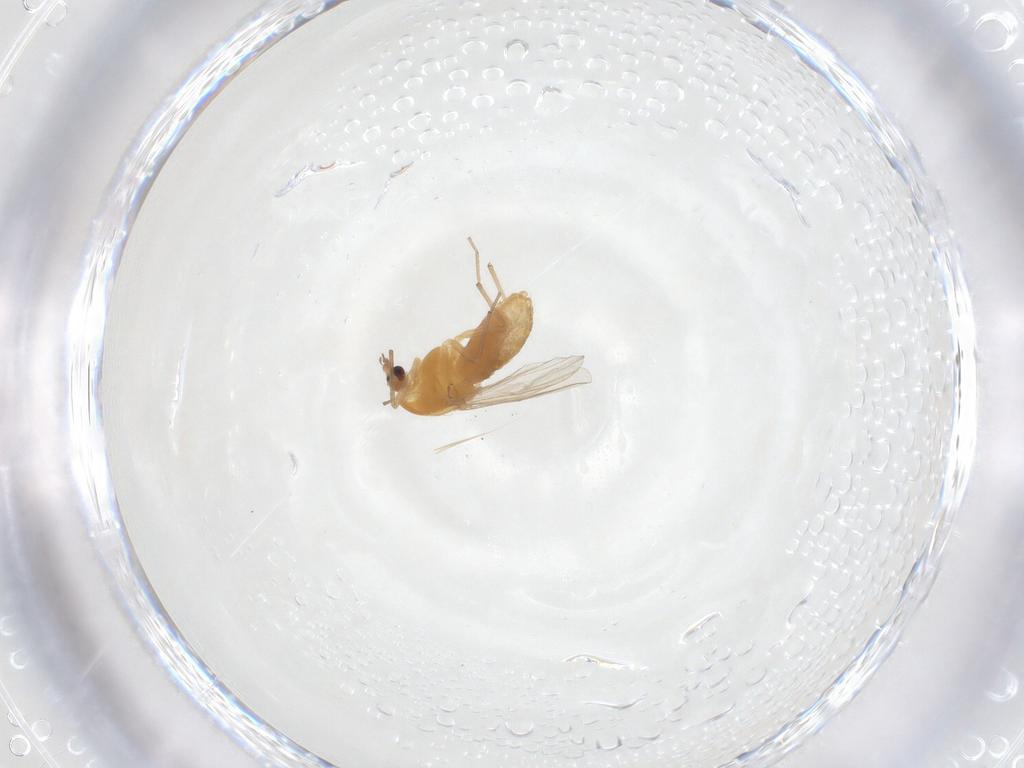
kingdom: Animalia
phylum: Arthropoda
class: Insecta
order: Diptera
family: Chironomidae
